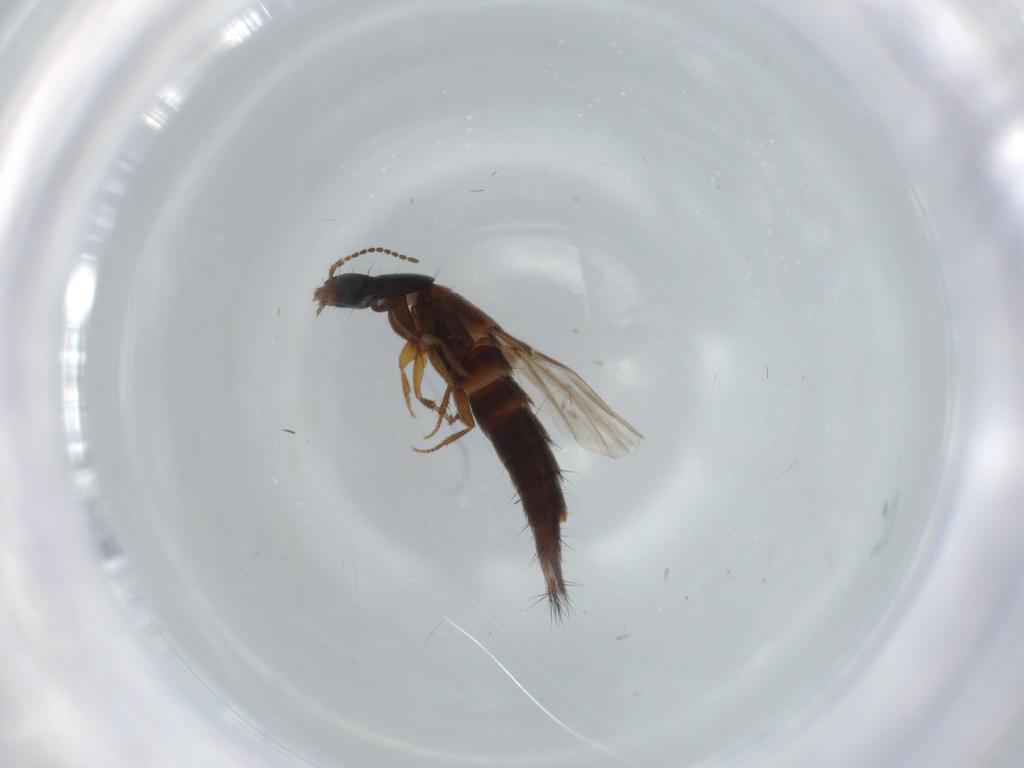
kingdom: Animalia
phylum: Arthropoda
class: Insecta
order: Coleoptera
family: Staphylinidae
